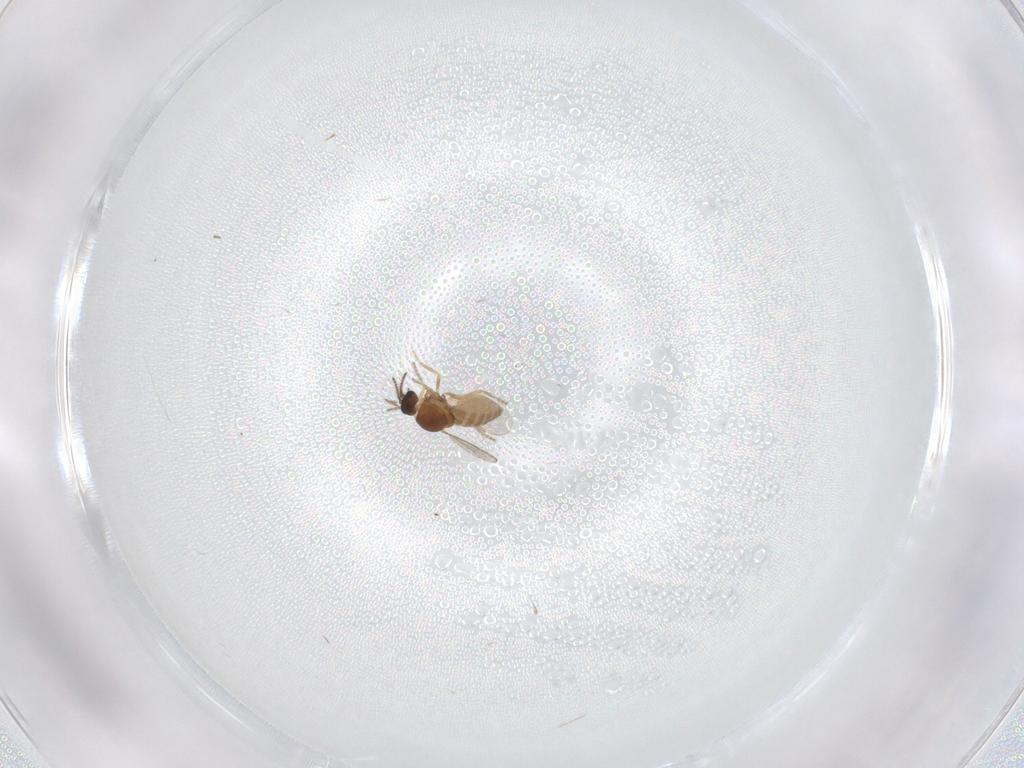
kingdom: Animalia
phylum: Arthropoda
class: Insecta
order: Diptera
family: Ceratopogonidae
